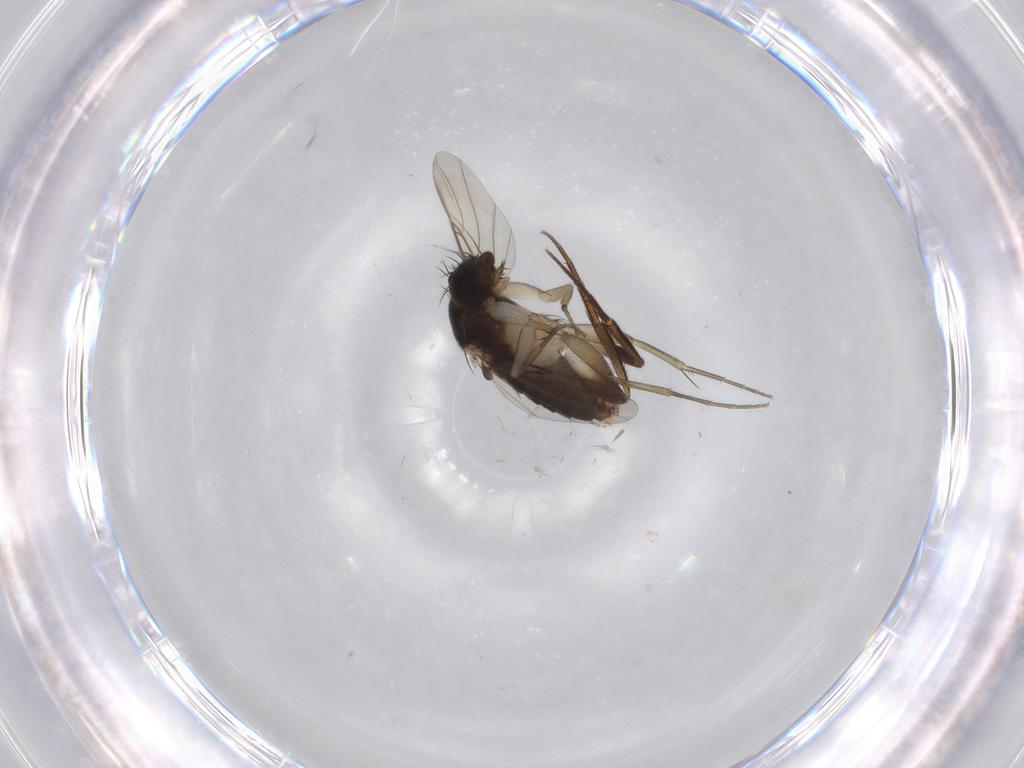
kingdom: Animalia
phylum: Arthropoda
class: Insecta
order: Diptera
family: Phoridae
